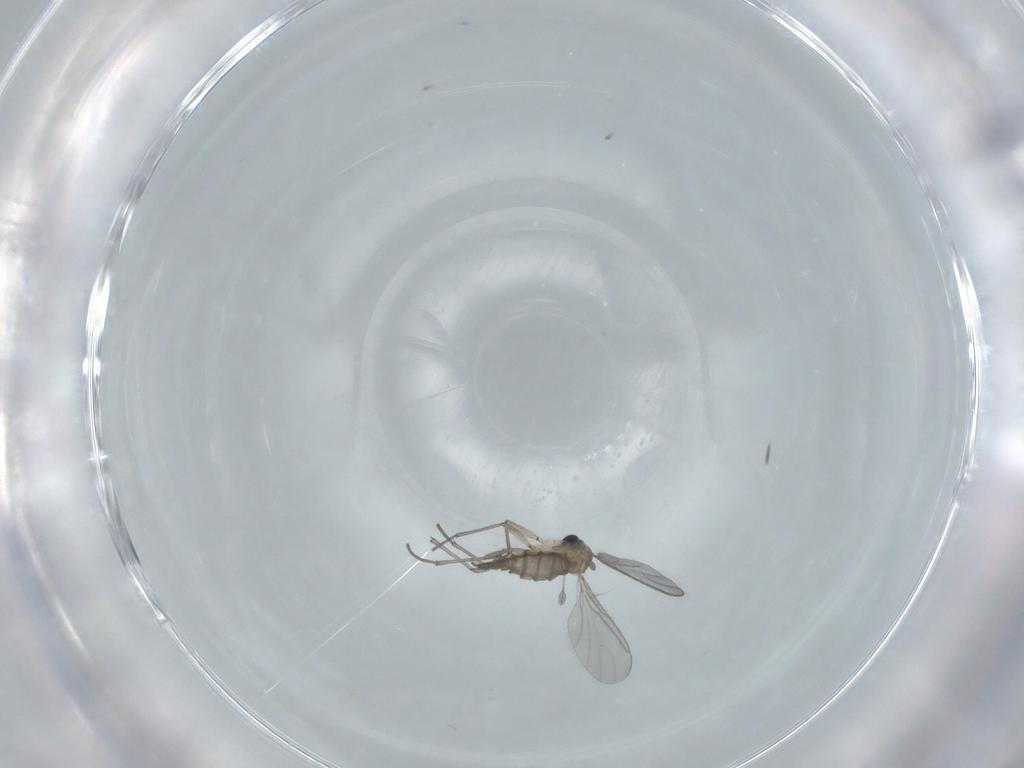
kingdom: Animalia
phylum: Arthropoda
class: Insecta
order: Diptera
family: Sciaridae
